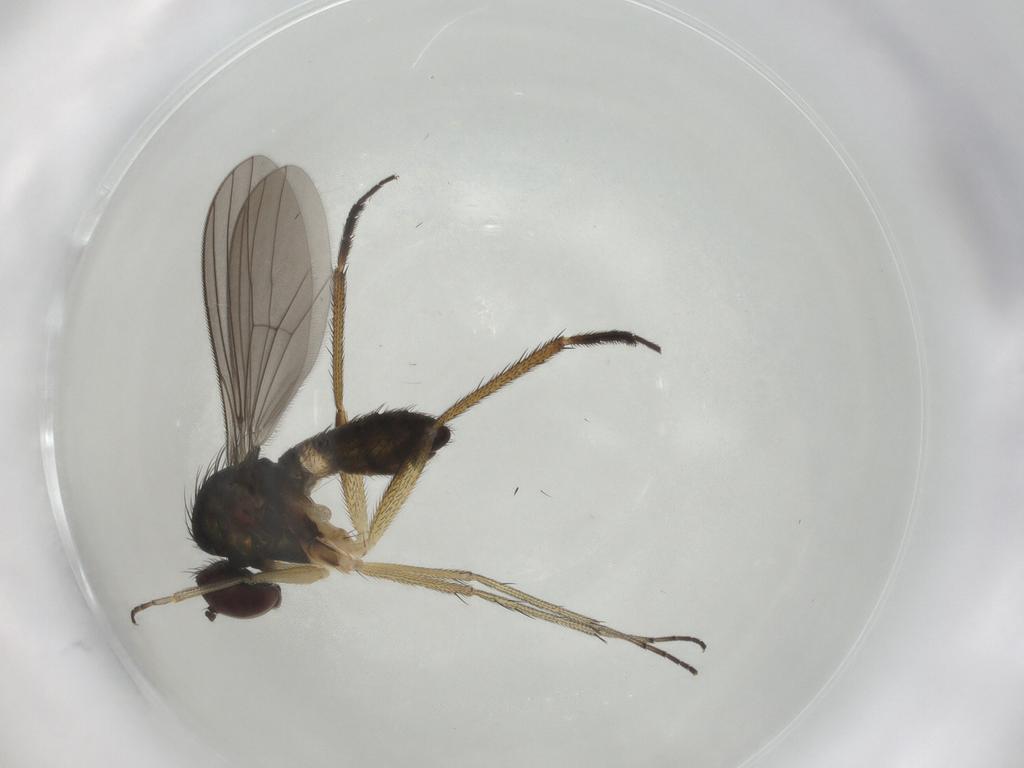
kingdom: Animalia
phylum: Arthropoda
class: Insecta
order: Diptera
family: Dolichopodidae
